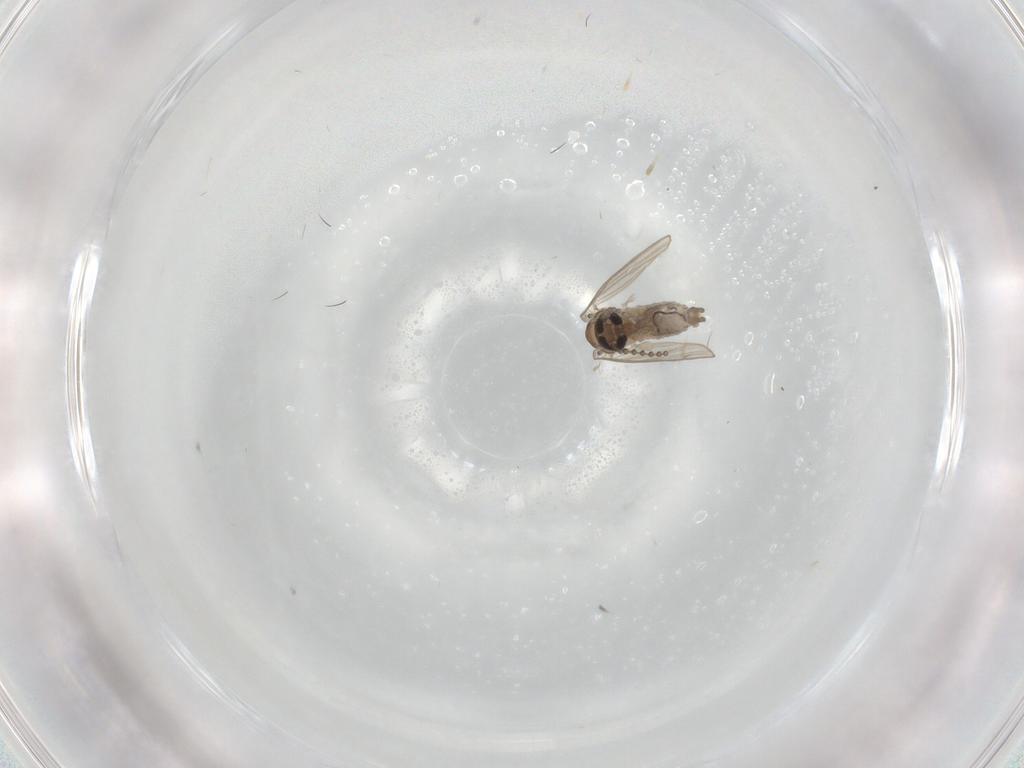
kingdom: Animalia
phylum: Arthropoda
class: Insecta
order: Diptera
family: Psychodidae
